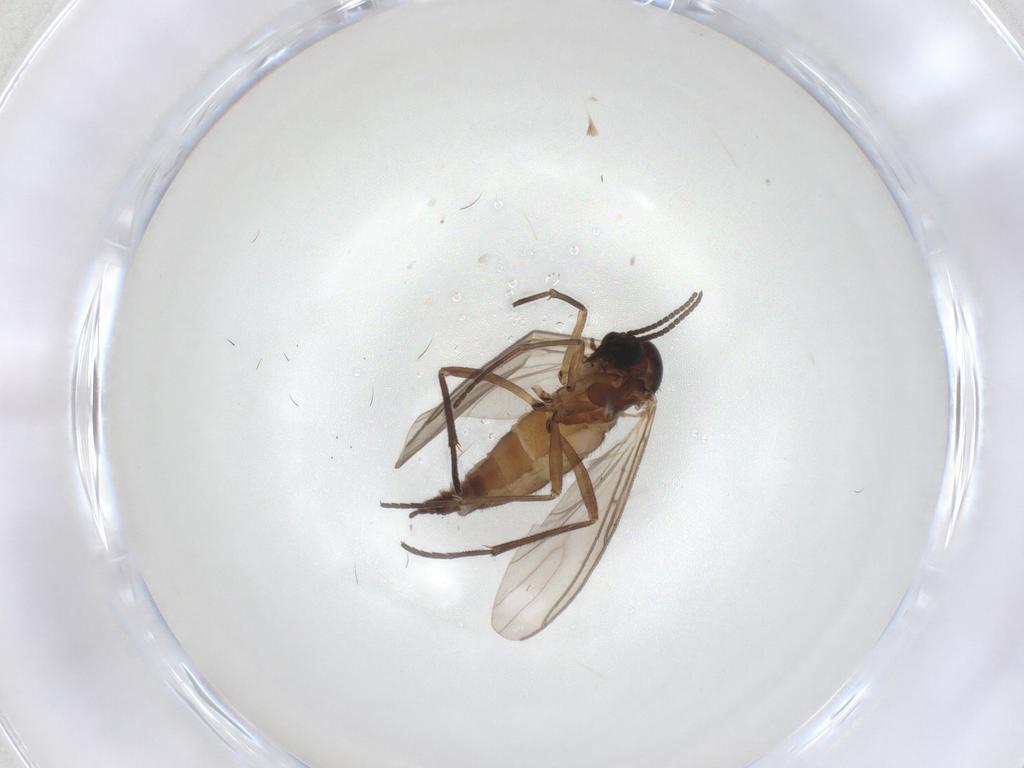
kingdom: Animalia
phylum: Arthropoda
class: Insecta
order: Diptera
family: Sciaridae
